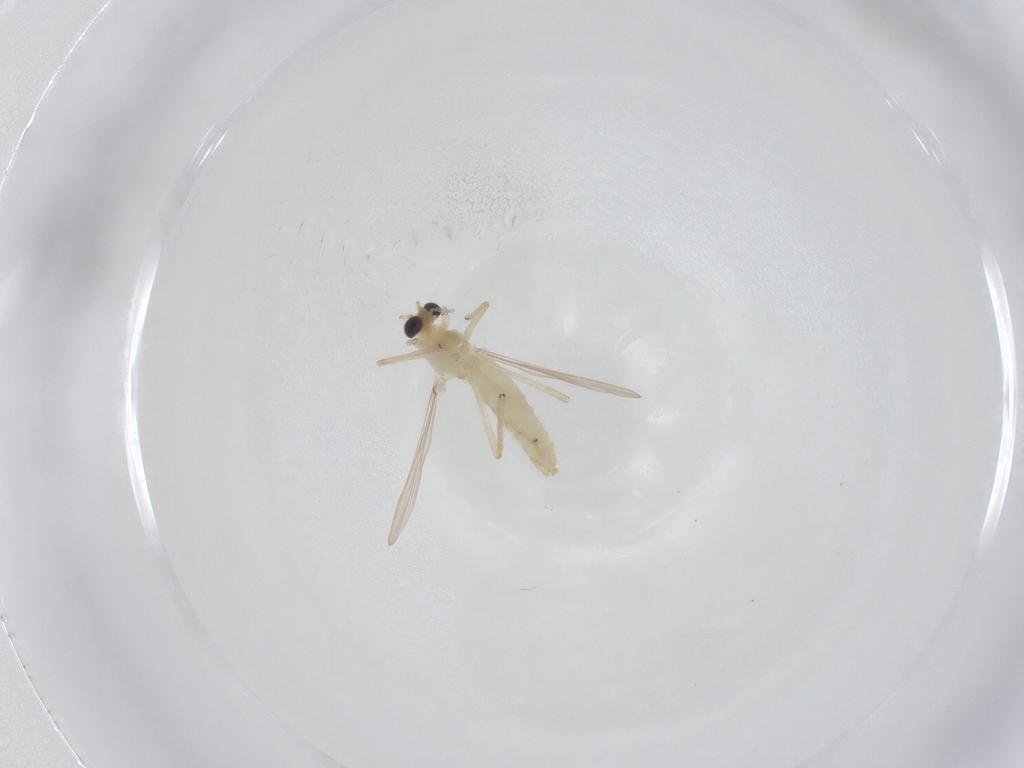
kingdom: Animalia
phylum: Arthropoda
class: Insecta
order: Diptera
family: Chironomidae
